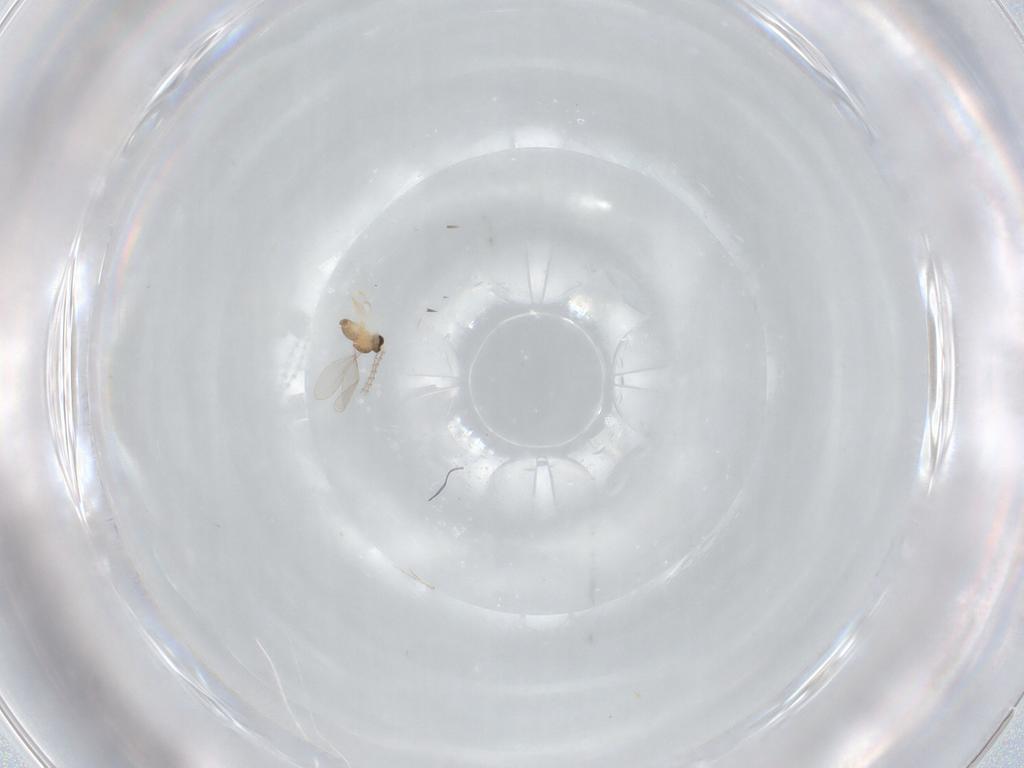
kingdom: Animalia
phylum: Arthropoda
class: Insecta
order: Diptera
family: Cecidomyiidae
